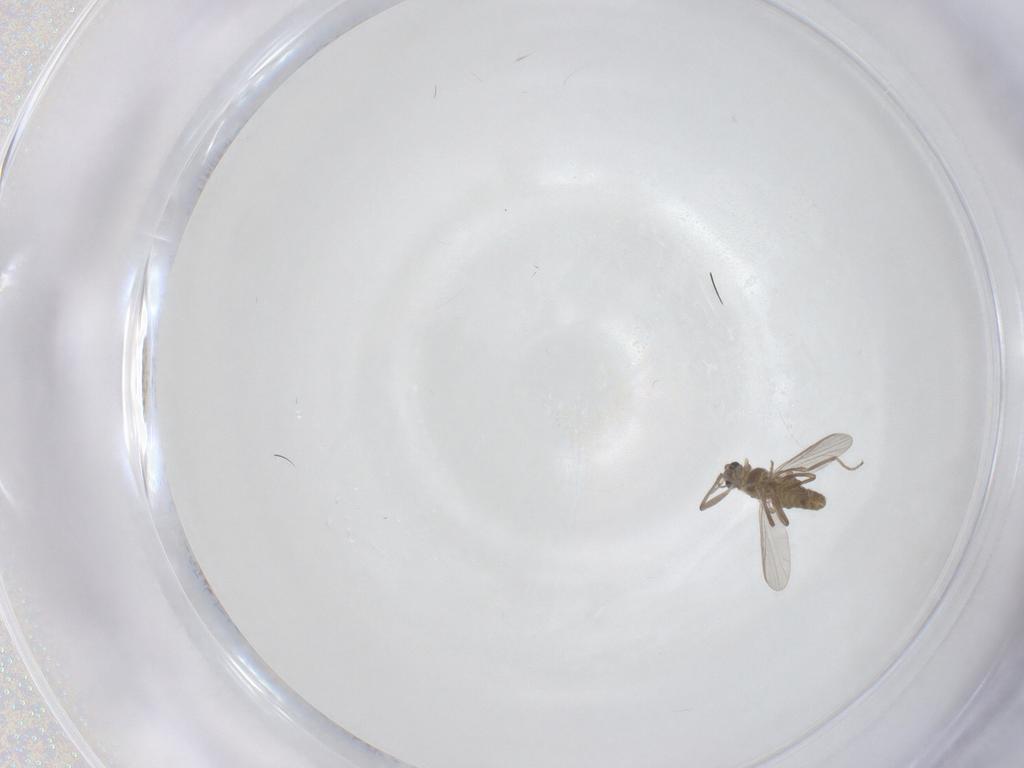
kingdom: Animalia
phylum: Arthropoda
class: Insecta
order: Diptera
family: Chironomidae
